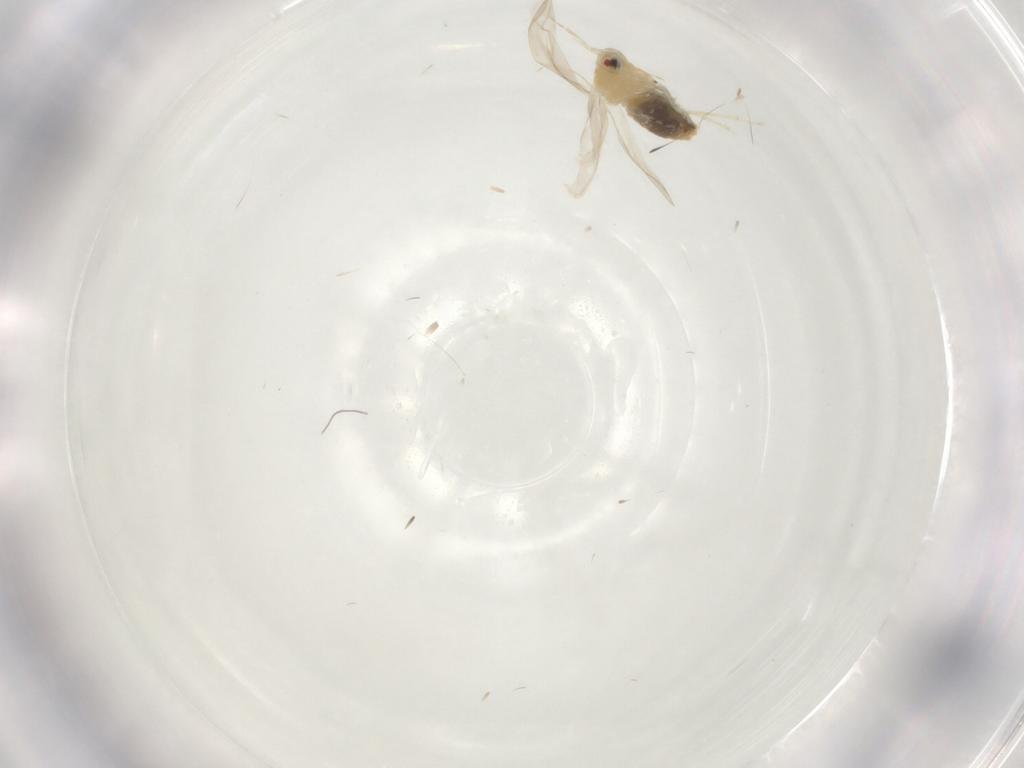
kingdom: Animalia
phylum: Arthropoda
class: Insecta
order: Hemiptera
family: Aleyrodidae
